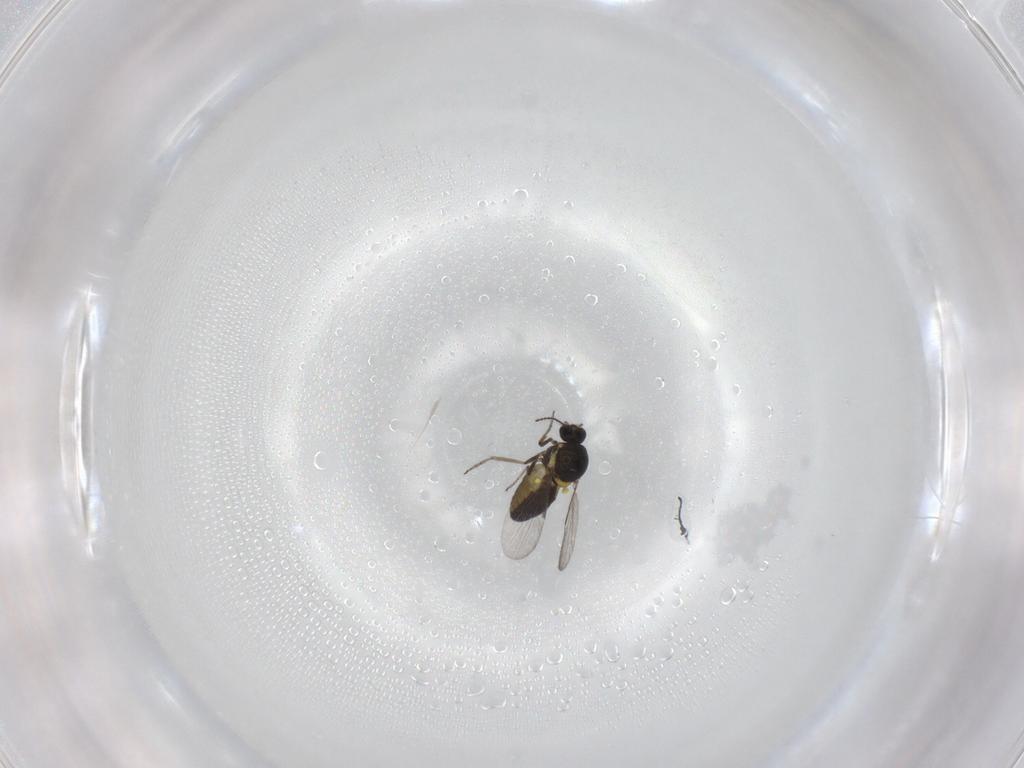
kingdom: Animalia
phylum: Arthropoda
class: Insecta
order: Diptera
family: Ceratopogonidae
